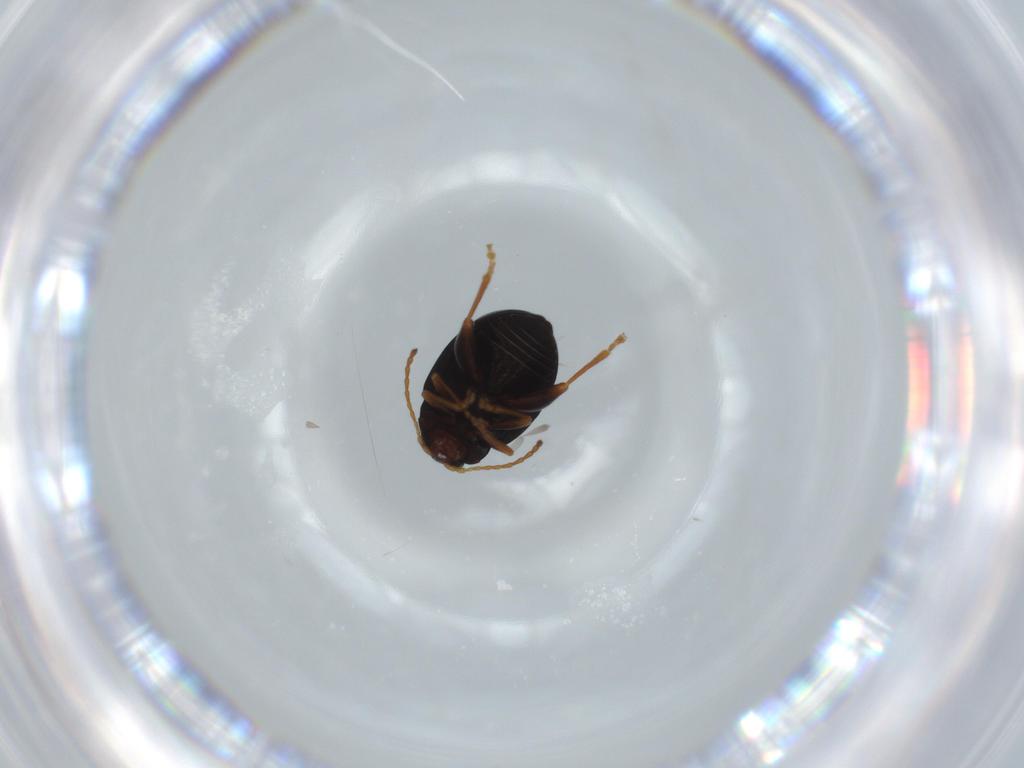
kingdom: Animalia
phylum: Arthropoda
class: Insecta
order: Coleoptera
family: Chrysomelidae
